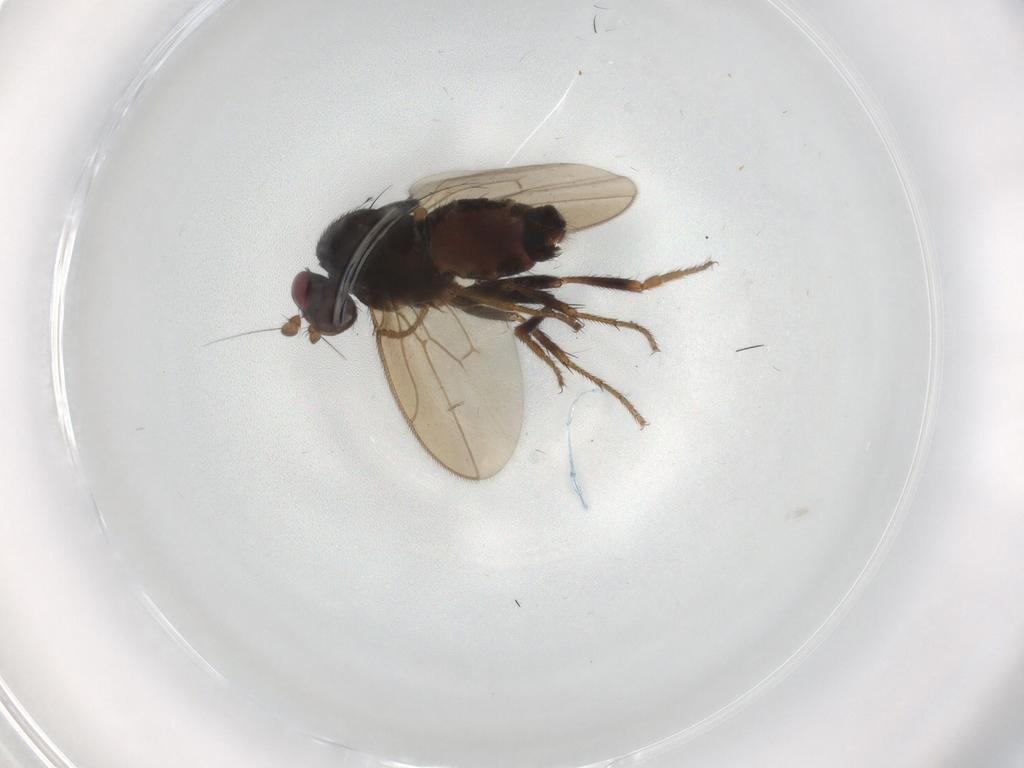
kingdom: Animalia
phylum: Arthropoda
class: Insecta
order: Diptera
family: Sphaeroceridae
